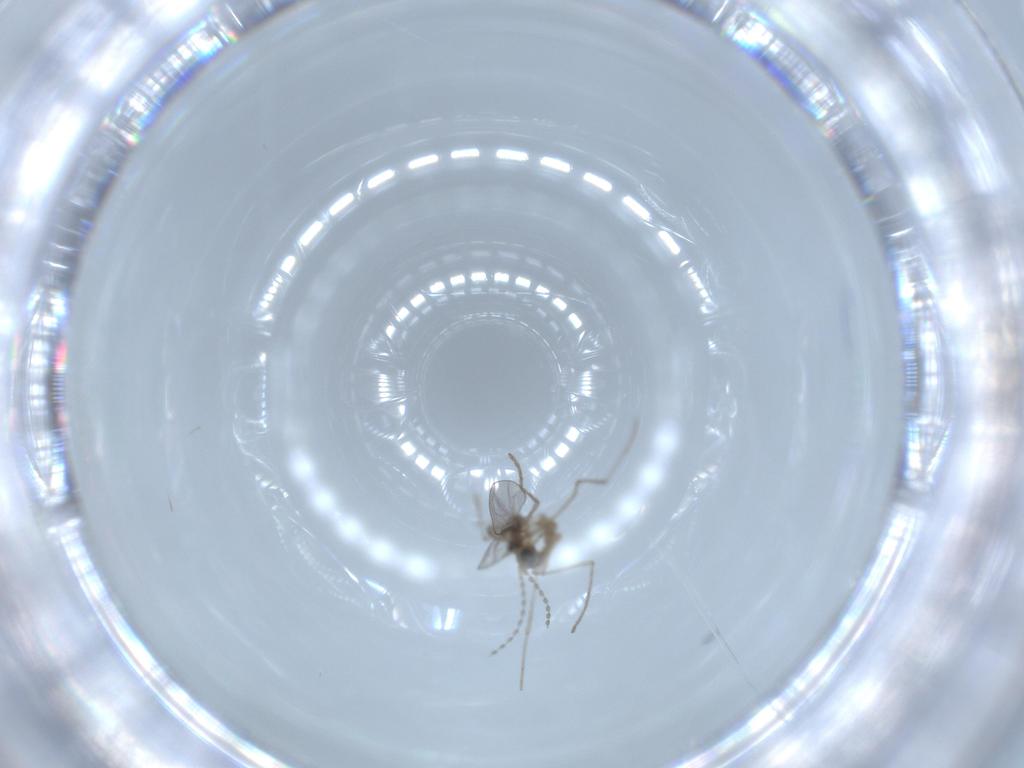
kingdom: Animalia
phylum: Arthropoda
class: Insecta
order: Diptera
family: Cecidomyiidae
